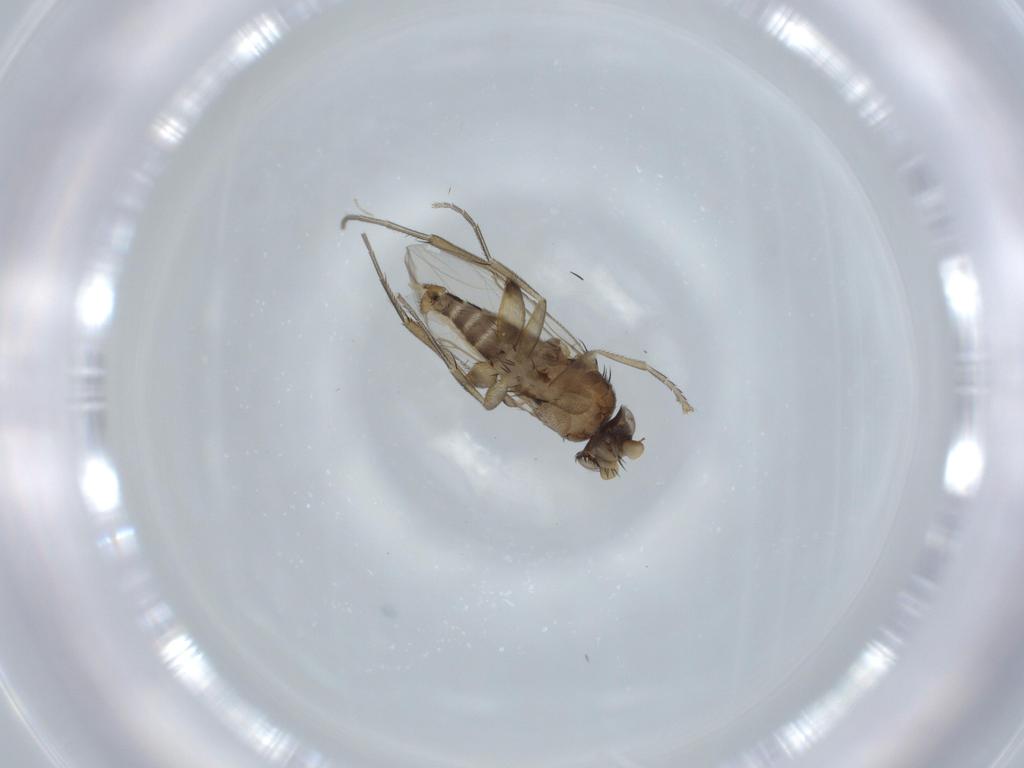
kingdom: Animalia
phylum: Arthropoda
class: Insecta
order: Diptera
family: Phoridae
